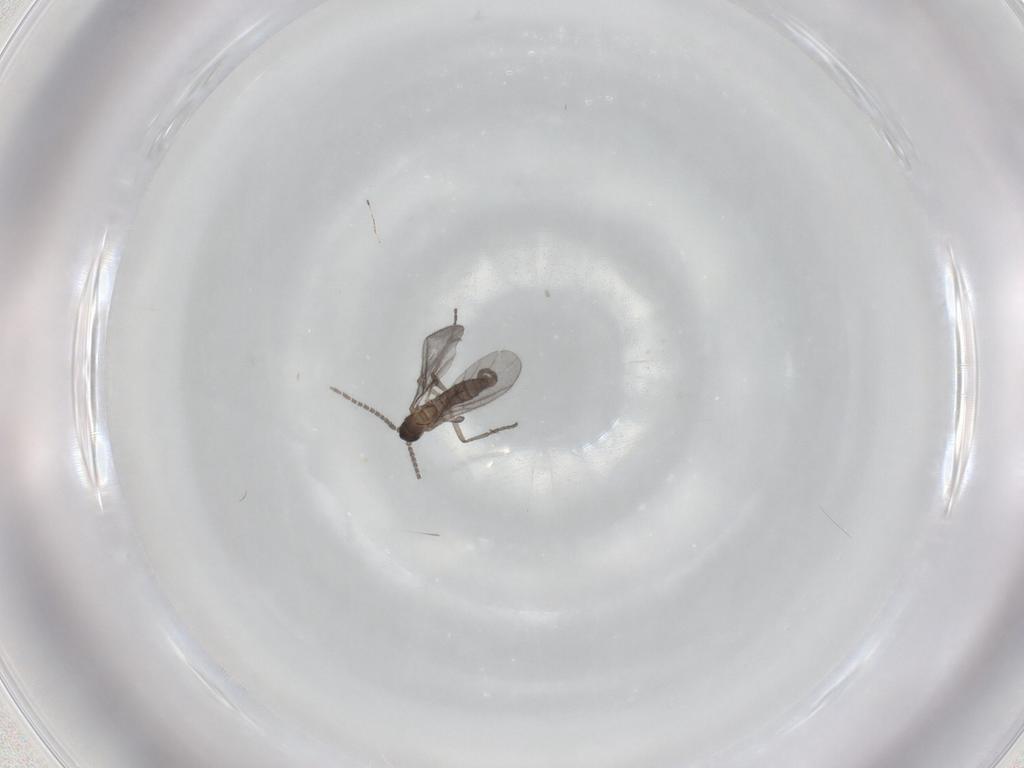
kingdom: Animalia
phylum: Arthropoda
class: Insecta
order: Diptera
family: Sciaridae
